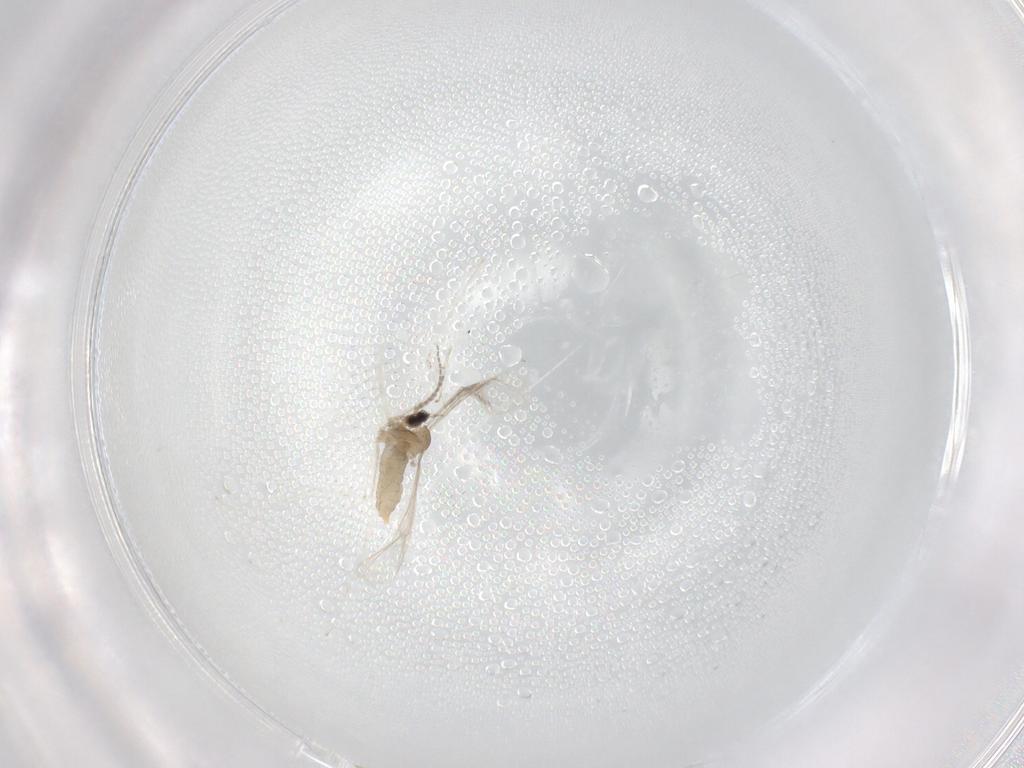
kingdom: Animalia
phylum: Arthropoda
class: Insecta
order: Diptera
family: Cecidomyiidae
